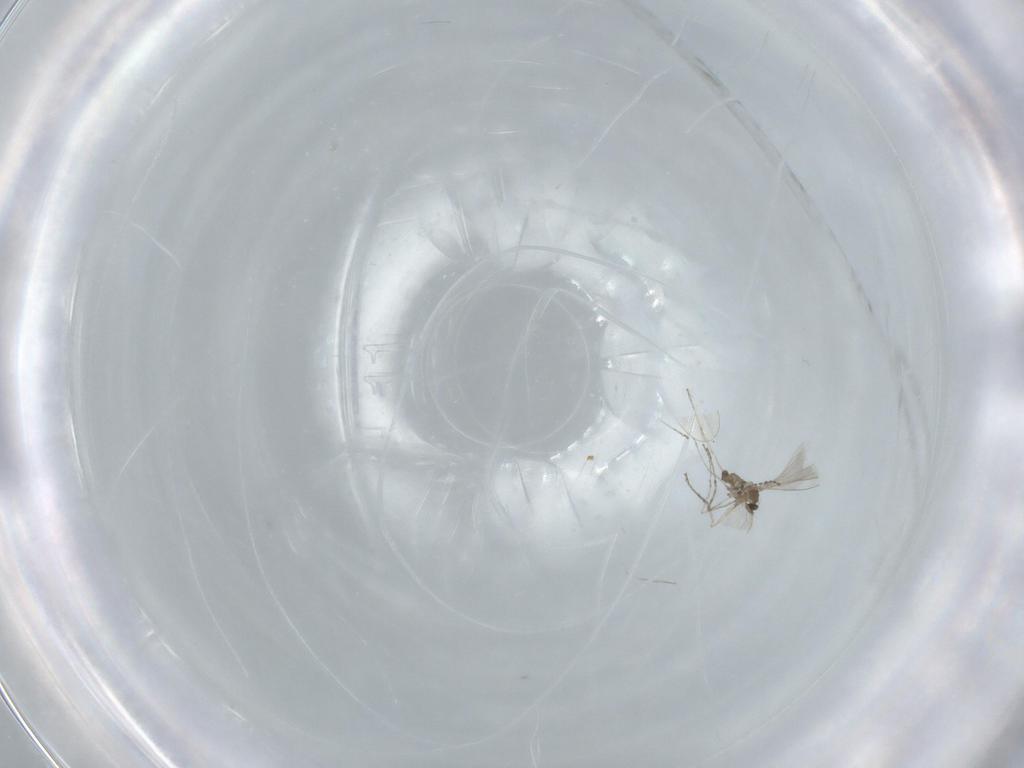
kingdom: Animalia
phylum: Arthropoda
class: Insecta
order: Diptera
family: Cecidomyiidae
